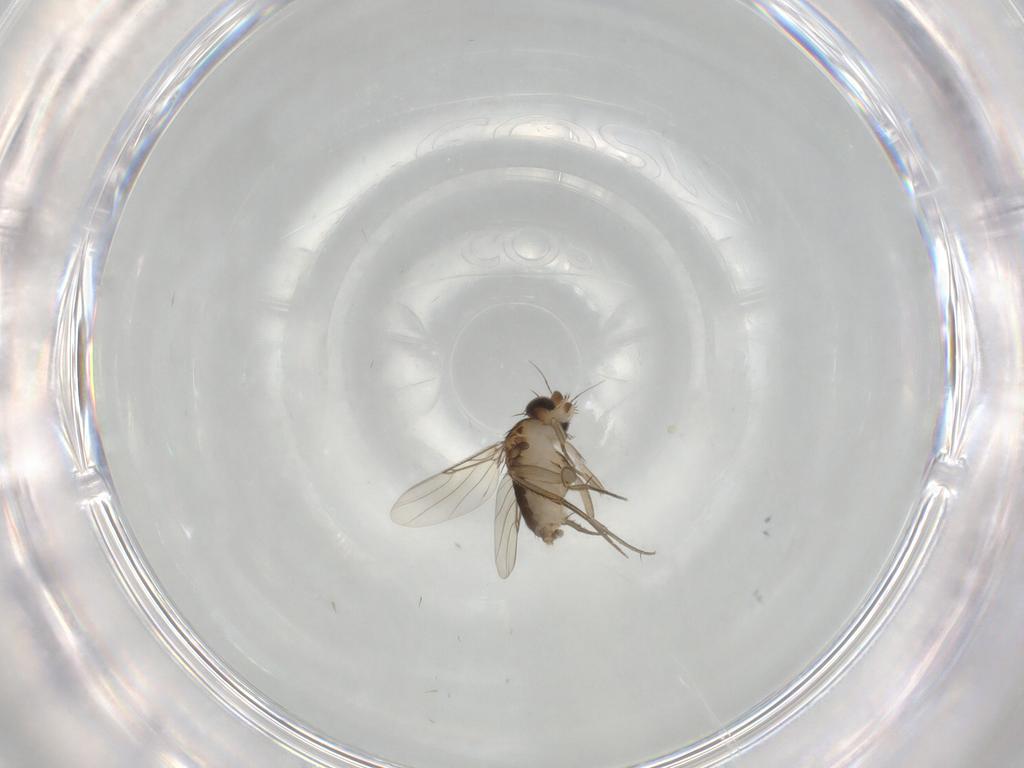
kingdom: Animalia
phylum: Arthropoda
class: Insecta
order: Diptera
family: Phoridae
